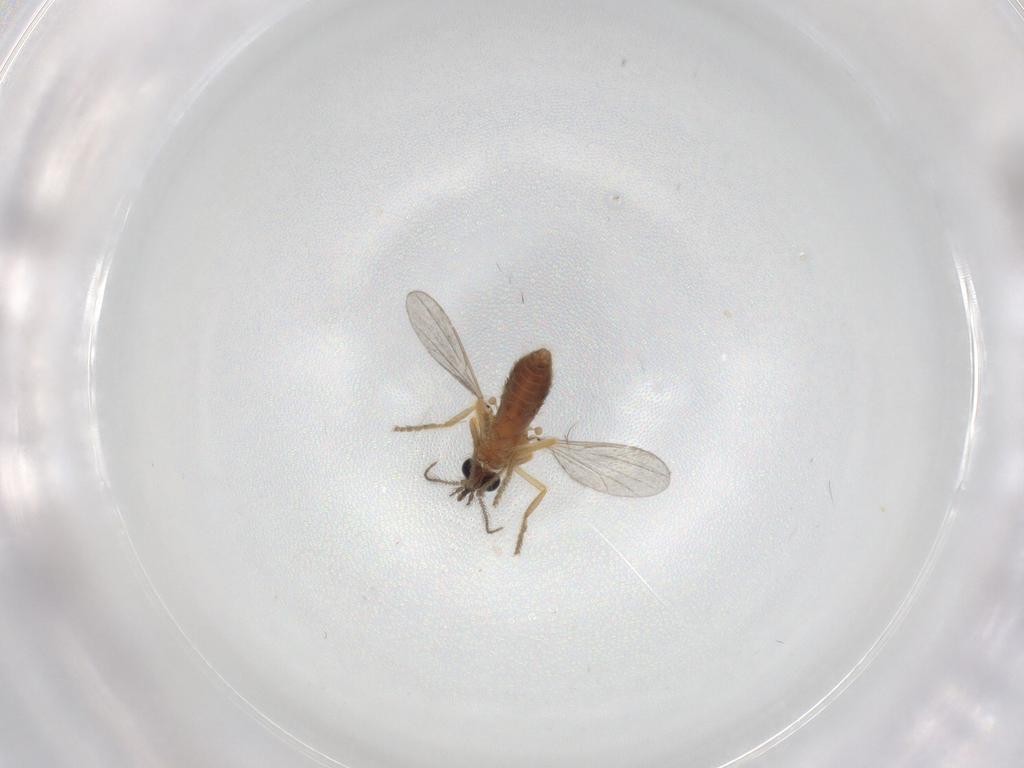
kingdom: Animalia
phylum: Arthropoda
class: Insecta
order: Diptera
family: Ceratopogonidae
